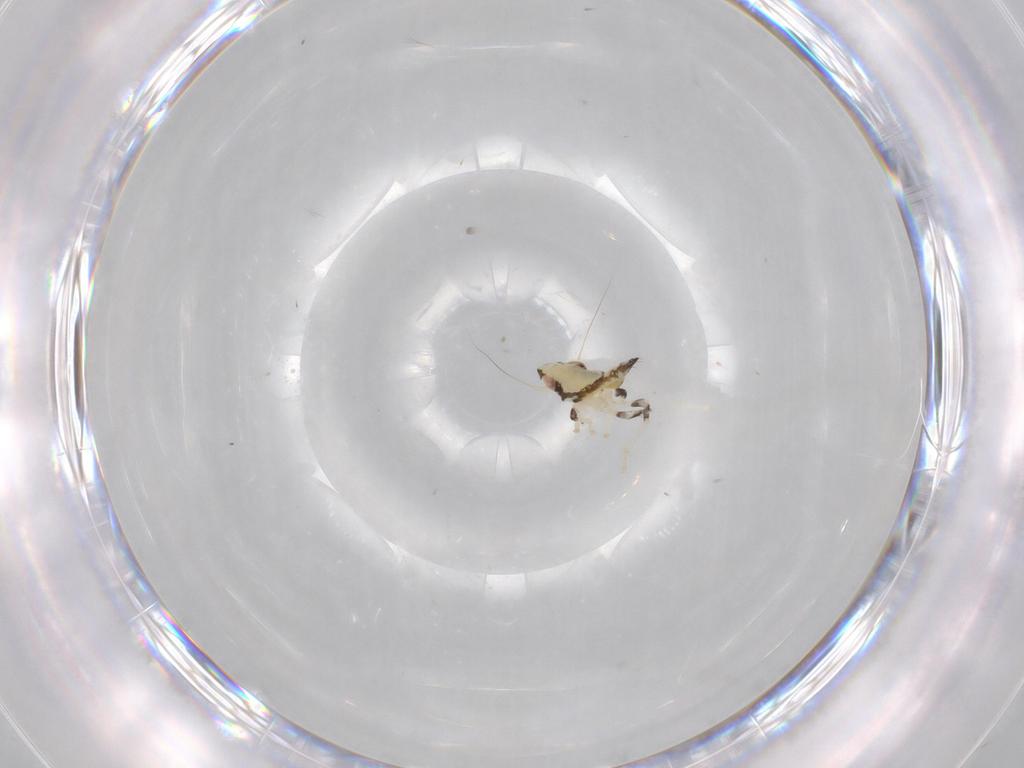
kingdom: Animalia
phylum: Arthropoda
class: Insecta
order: Hemiptera
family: Cicadellidae
